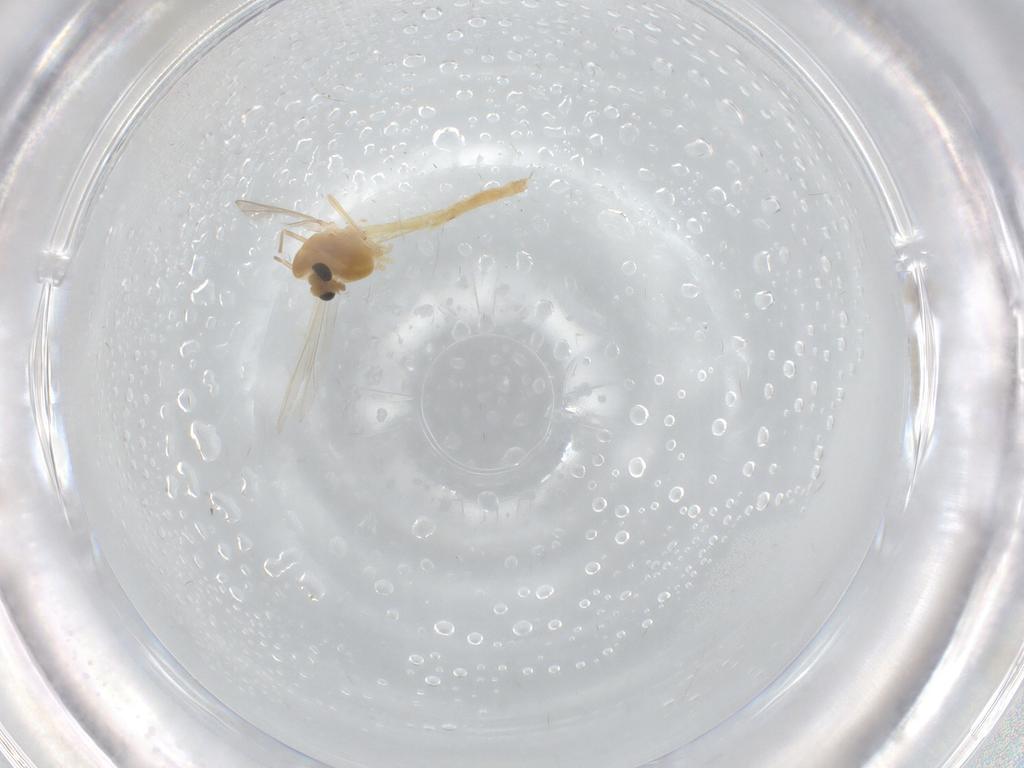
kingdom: Animalia
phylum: Arthropoda
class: Insecta
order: Diptera
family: Chironomidae
